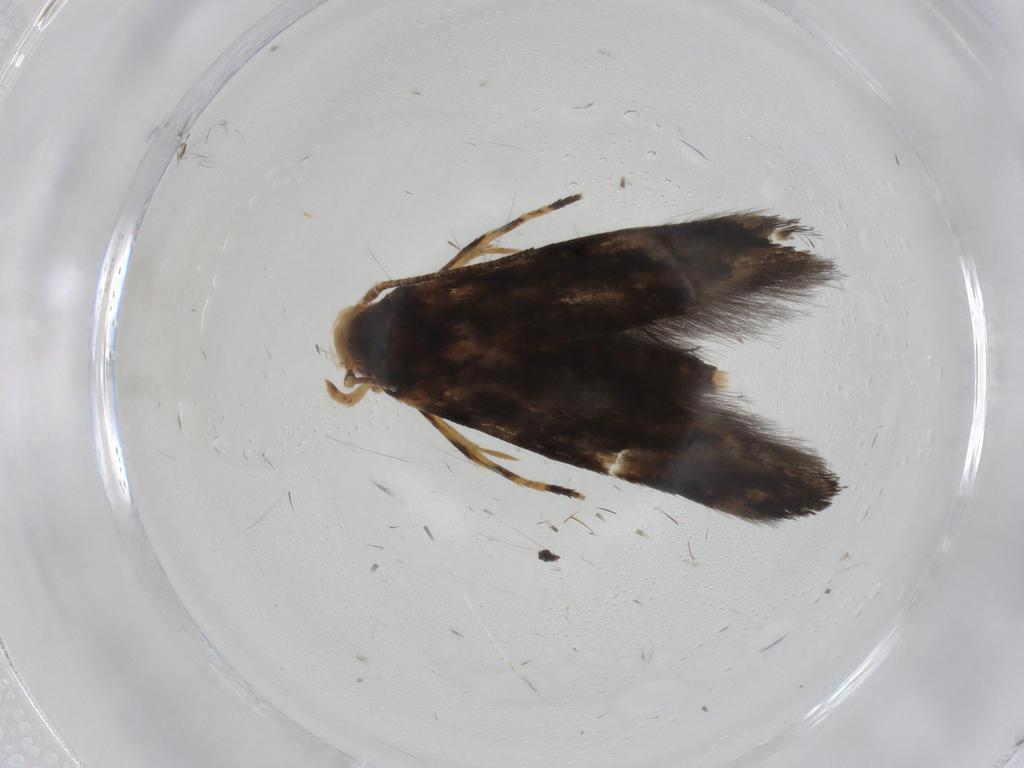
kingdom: Animalia
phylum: Arthropoda
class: Insecta
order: Lepidoptera
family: Momphidae
